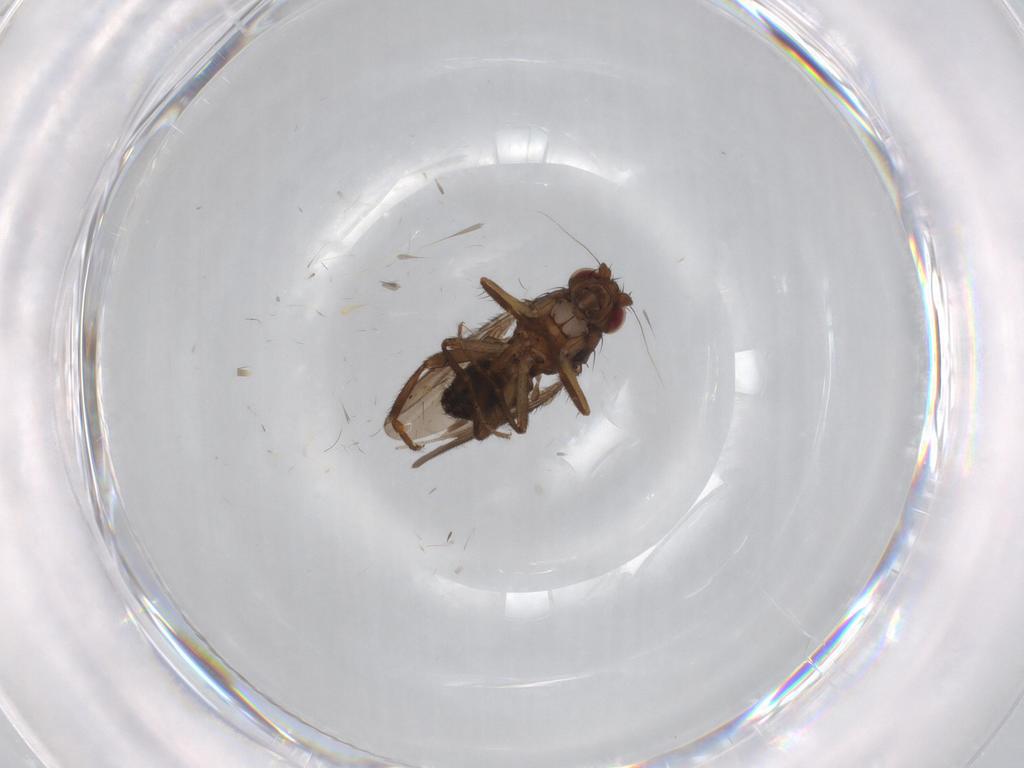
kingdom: Animalia
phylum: Arthropoda
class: Insecta
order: Diptera
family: Sphaeroceridae
